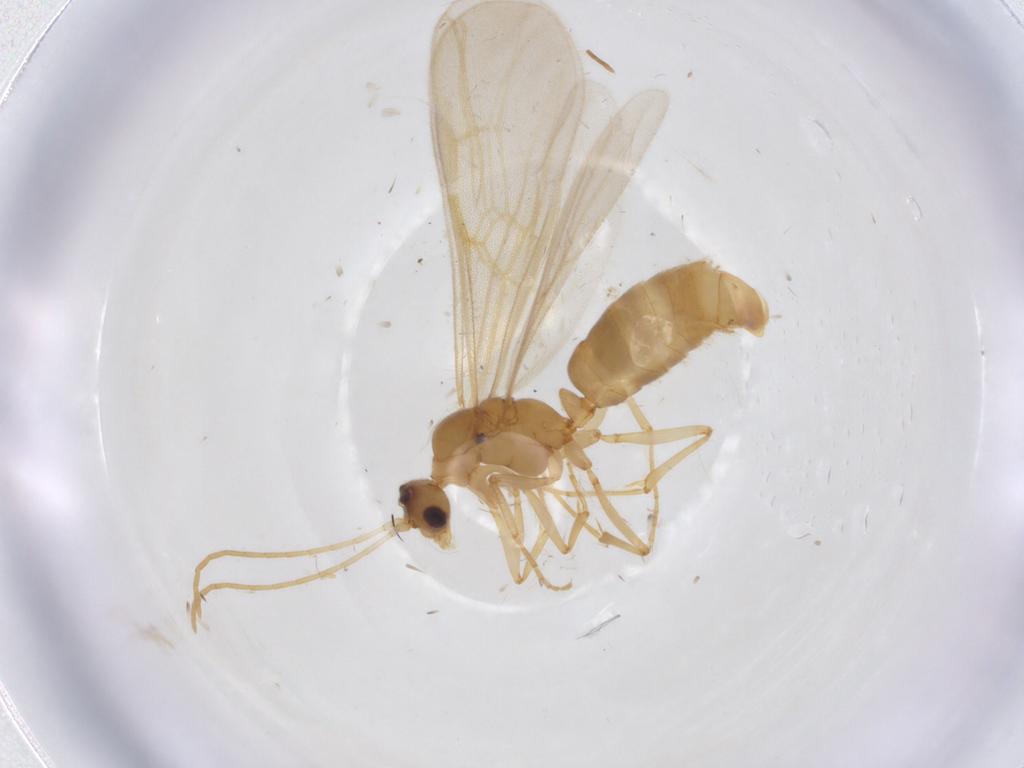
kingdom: Animalia
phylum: Arthropoda
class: Insecta
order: Hymenoptera
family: Formicidae
